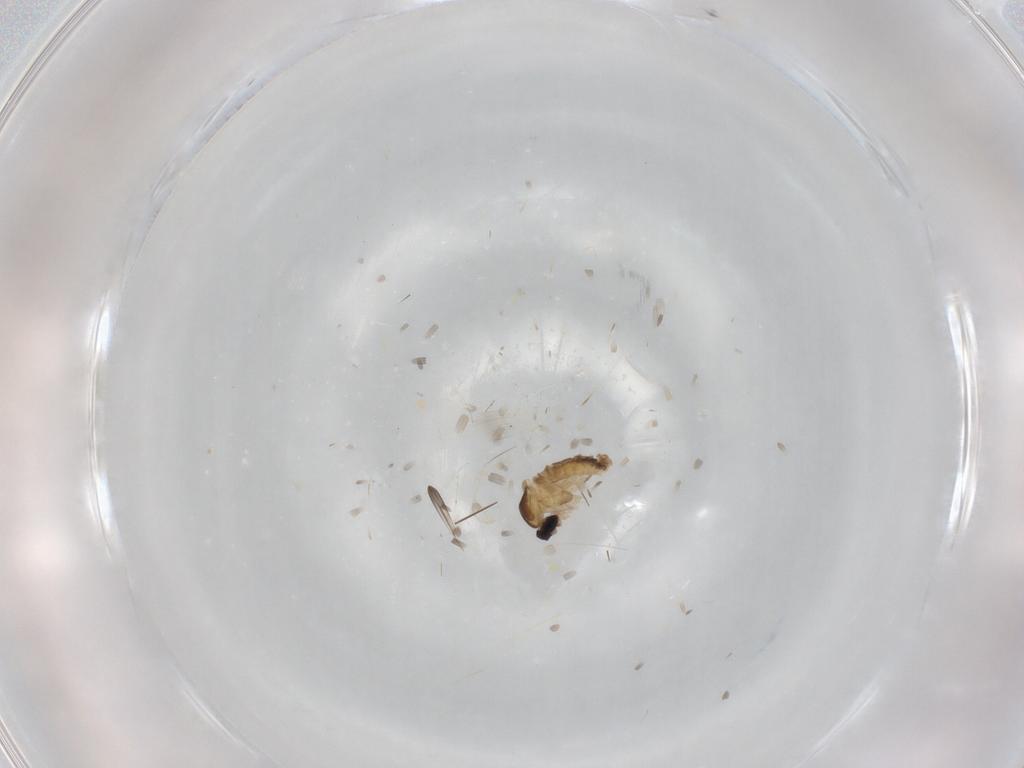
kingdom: Animalia
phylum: Arthropoda
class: Insecta
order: Diptera
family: Cecidomyiidae
